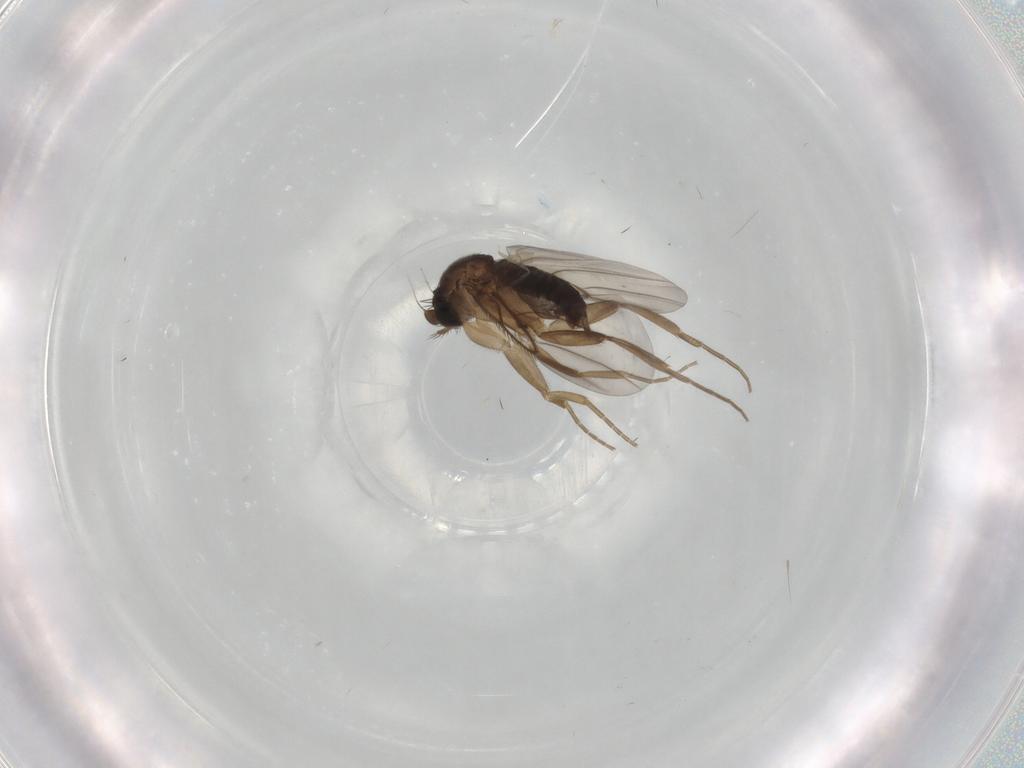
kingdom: Animalia
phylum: Arthropoda
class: Insecta
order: Diptera
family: Phoridae
